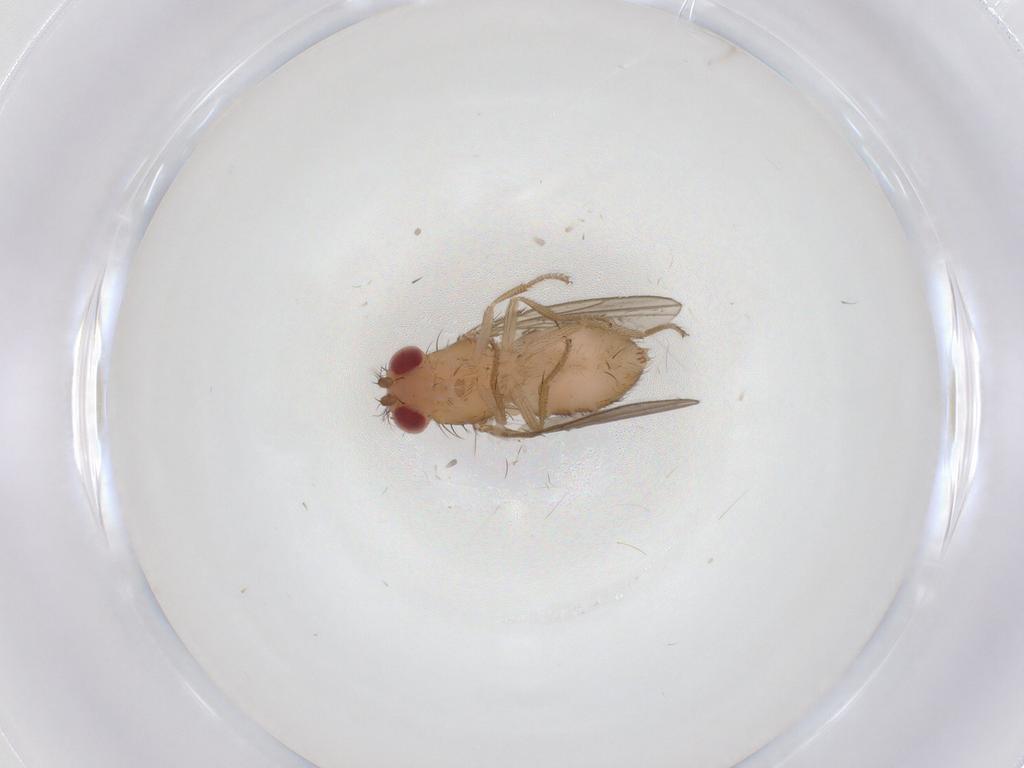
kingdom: Animalia
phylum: Arthropoda
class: Insecta
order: Diptera
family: Drosophilidae
